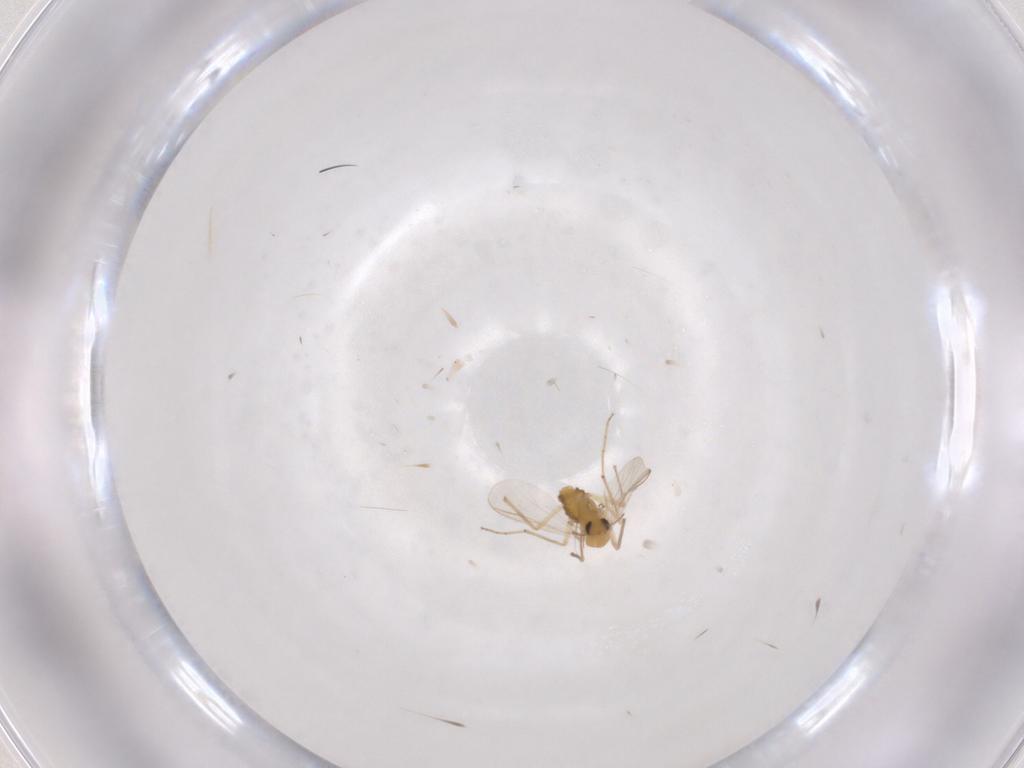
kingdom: Animalia
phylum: Arthropoda
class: Insecta
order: Diptera
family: Chironomidae
